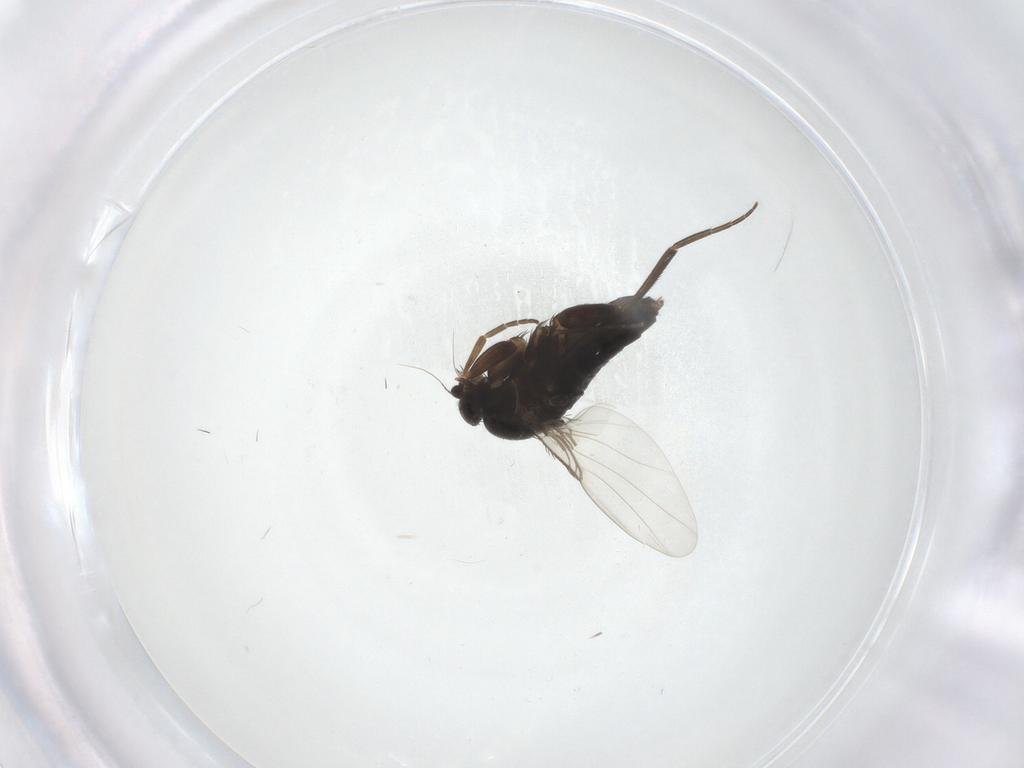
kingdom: Animalia
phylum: Arthropoda
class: Insecta
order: Diptera
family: Phoridae
